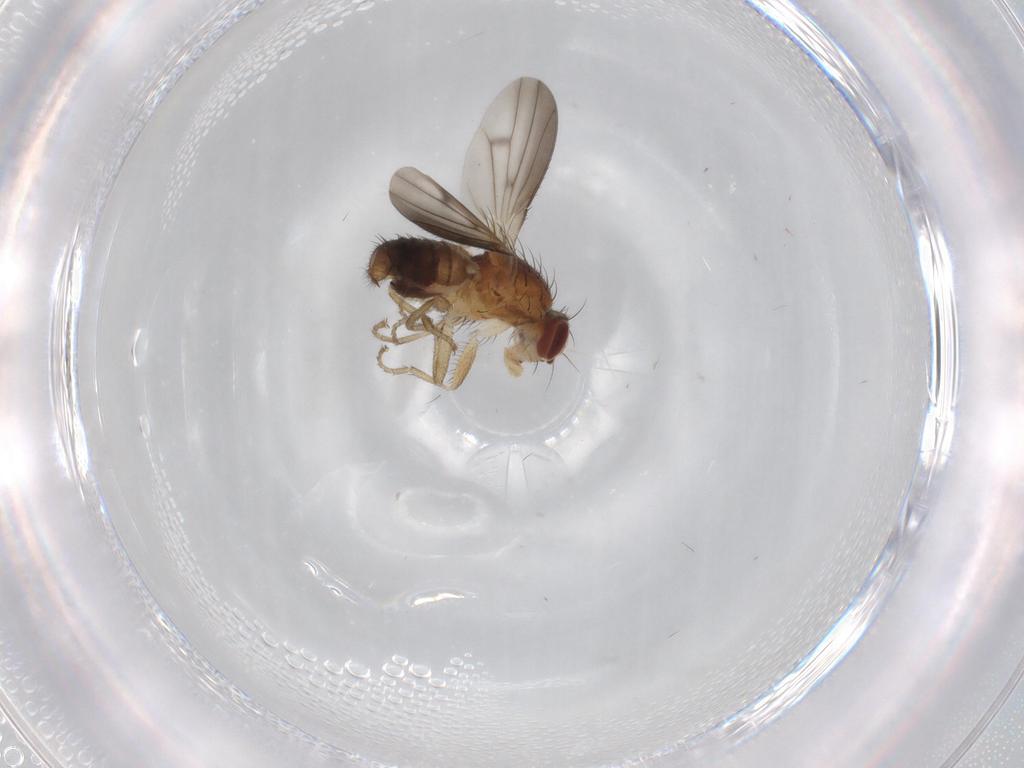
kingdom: Animalia
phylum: Arthropoda
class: Insecta
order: Diptera
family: Heleomyzidae
